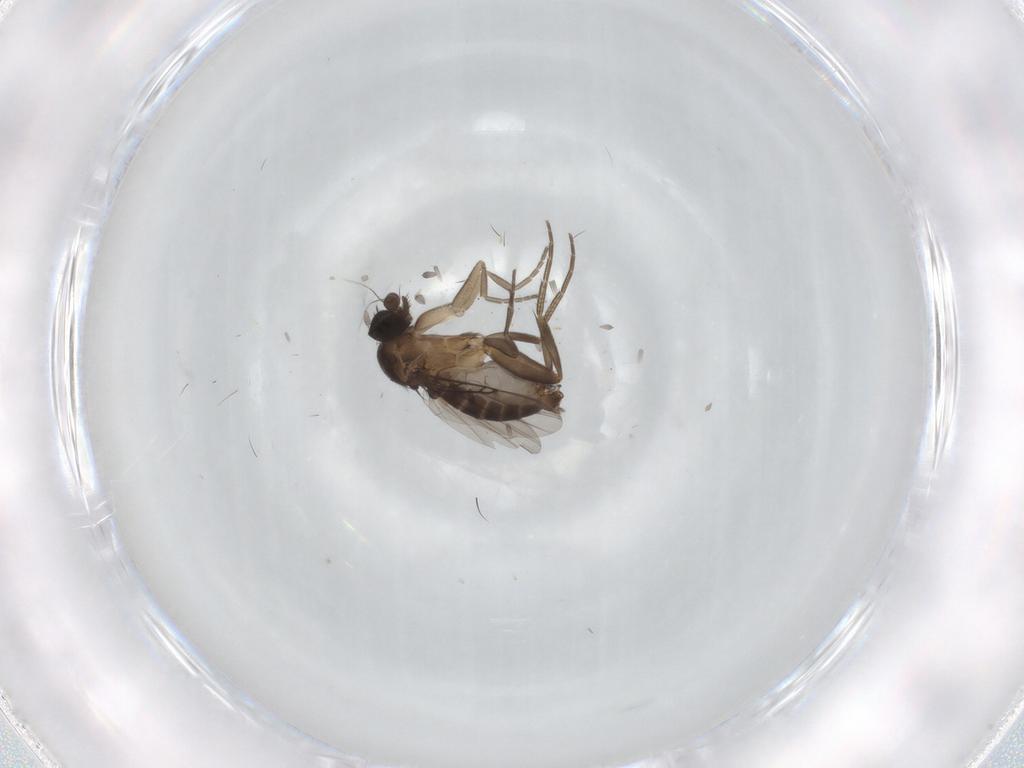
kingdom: Animalia
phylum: Arthropoda
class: Insecta
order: Diptera
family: Phoridae
